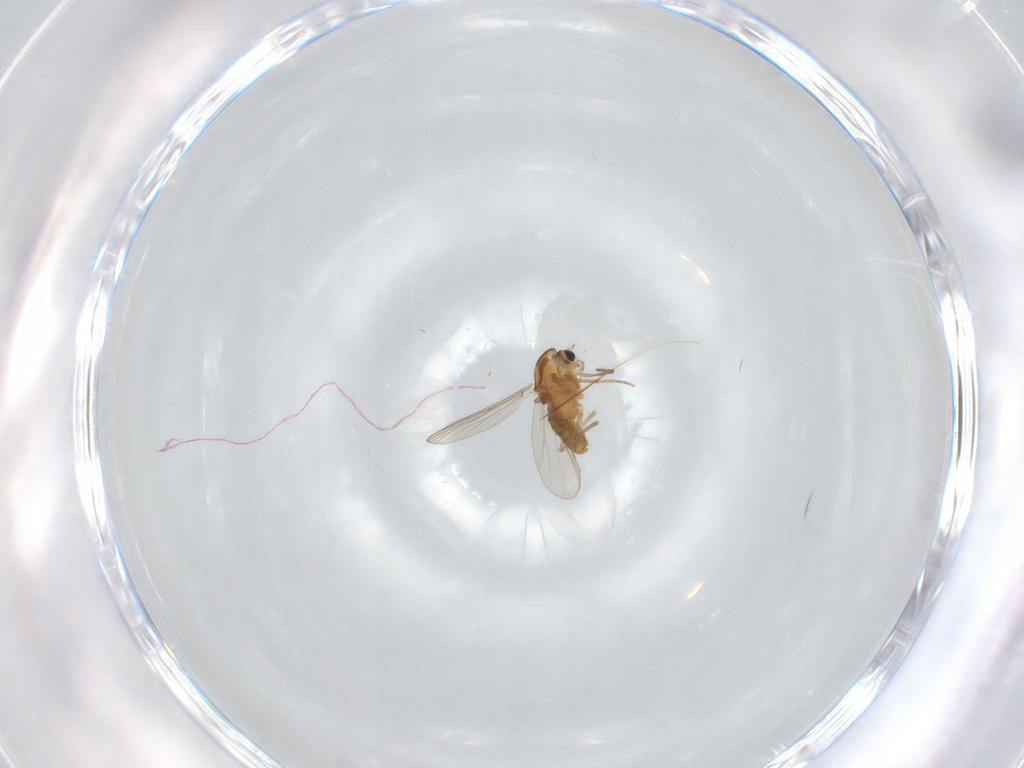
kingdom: Animalia
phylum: Arthropoda
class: Insecta
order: Diptera
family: Chironomidae
